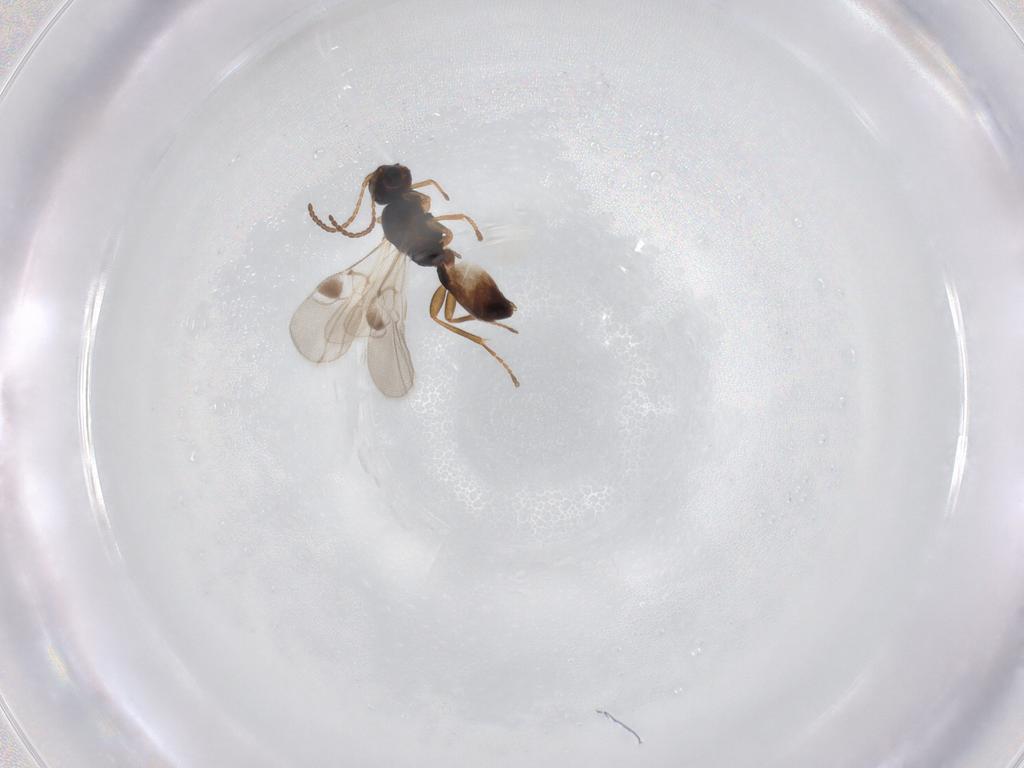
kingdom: Animalia
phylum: Arthropoda
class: Insecta
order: Hymenoptera
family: Braconidae
